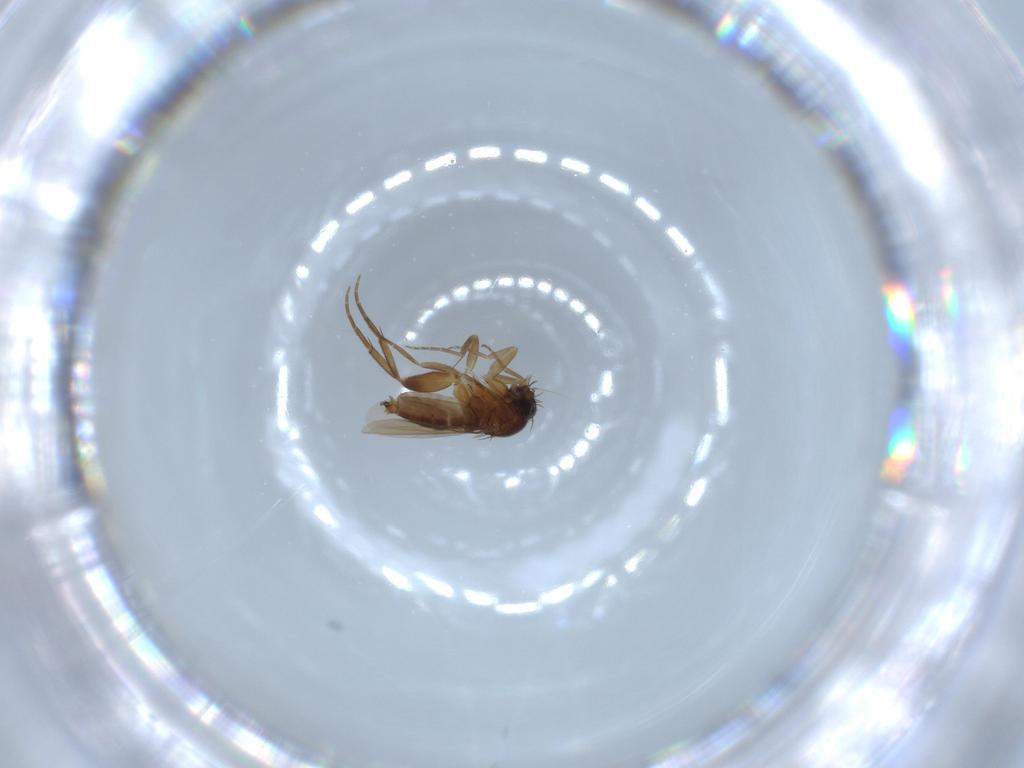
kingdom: Animalia
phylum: Arthropoda
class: Insecta
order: Diptera
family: Phoridae
